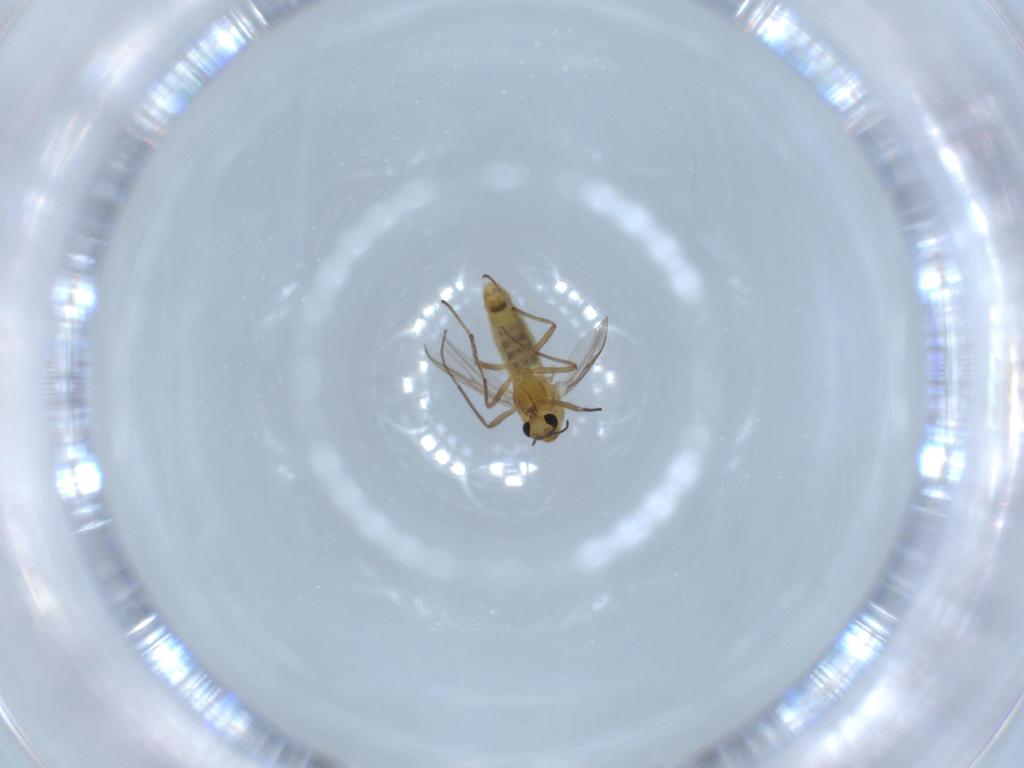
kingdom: Animalia
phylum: Arthropoda
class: Insecta
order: Diptera
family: Chironomidae
